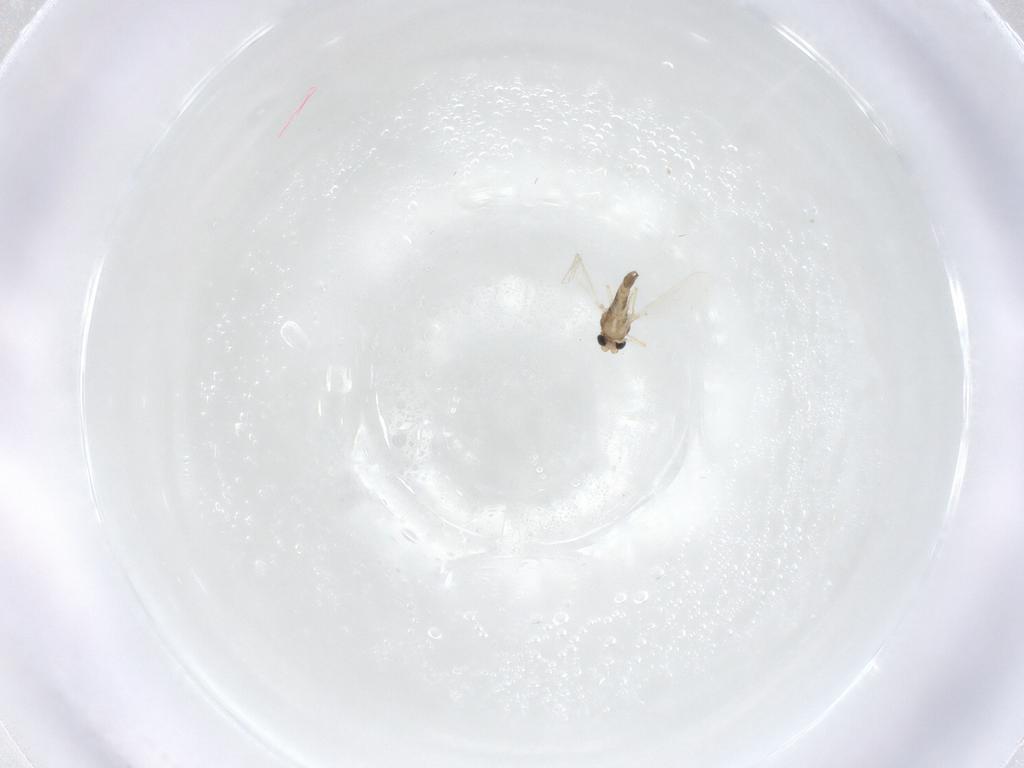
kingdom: Animalia
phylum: Arthropoda
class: Insecta
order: Diptera
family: Chironomidae
